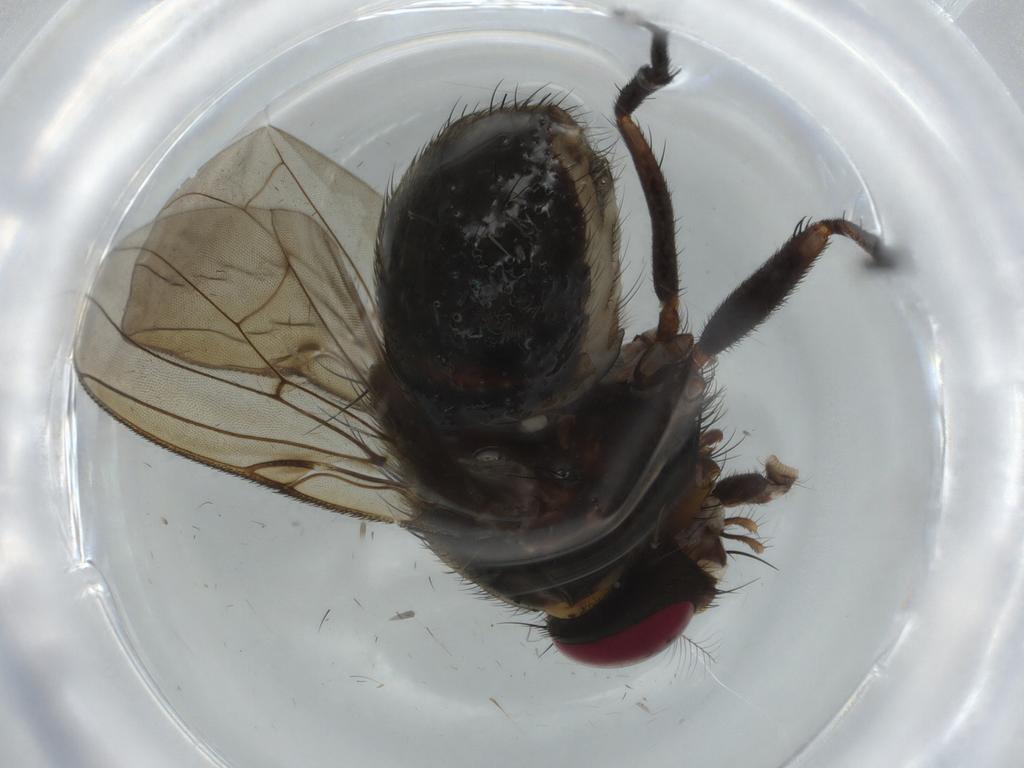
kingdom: Animalia
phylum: Arthropoda
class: Insecta
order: Diptera
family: Muscidae
